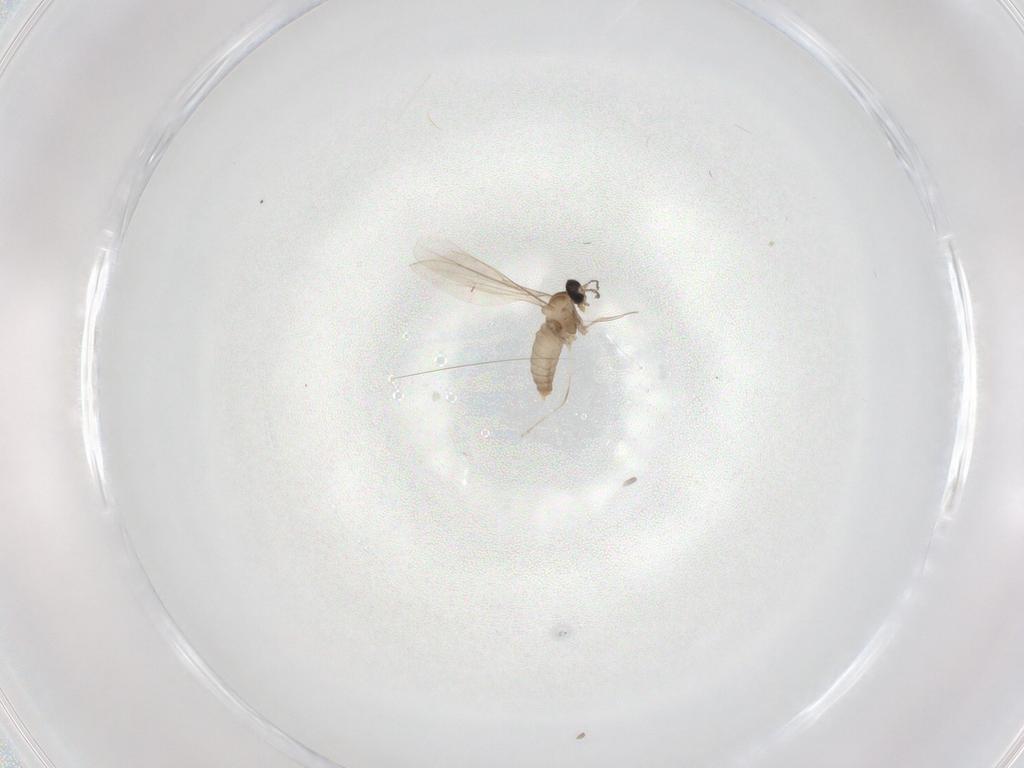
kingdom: Animalia
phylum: Arthropoda
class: Insecta
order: Diptera
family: Cecidomyiidae
